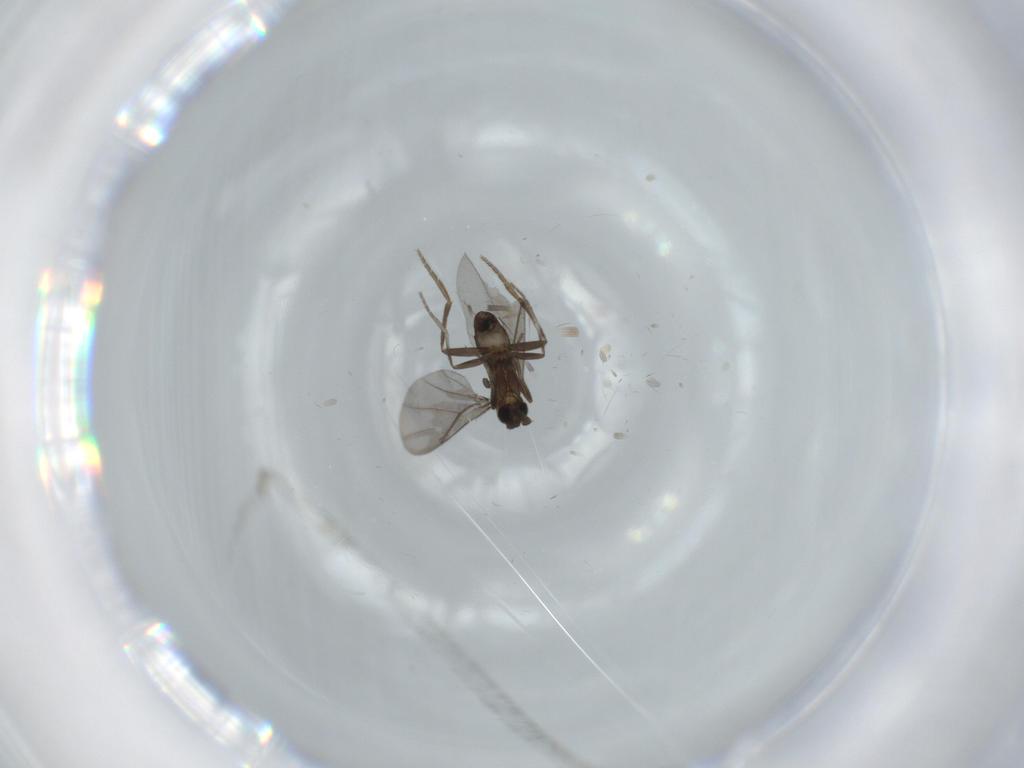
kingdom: Animalia
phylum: Arthropoda
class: Insecta
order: Diptera
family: Phoridae
